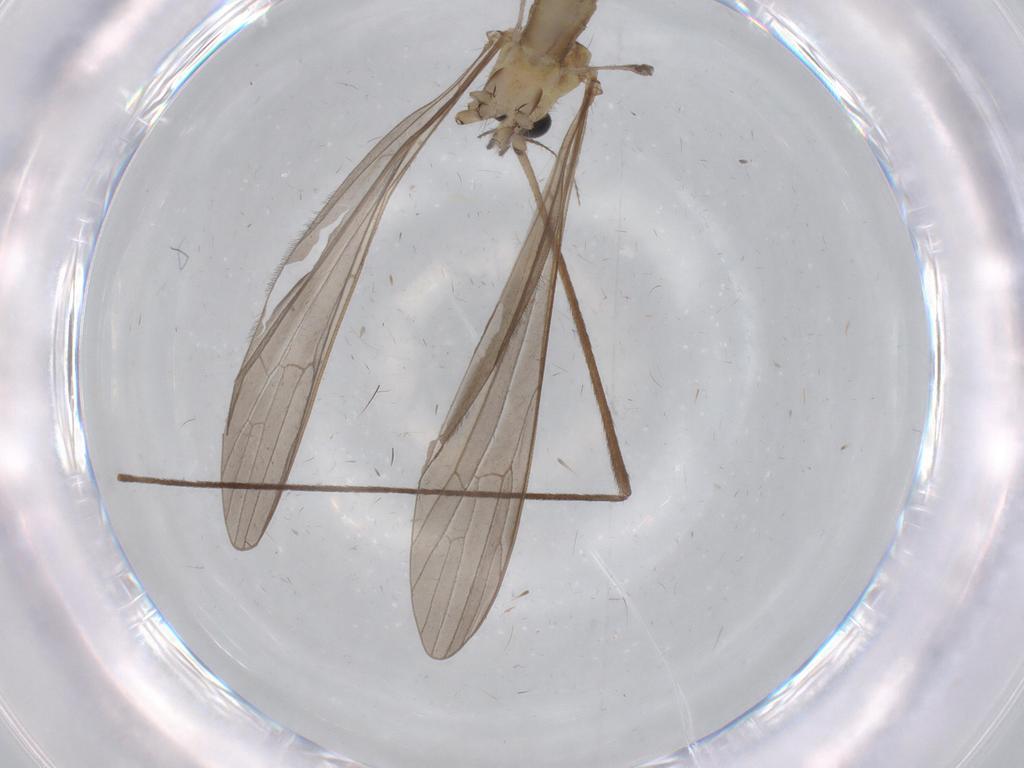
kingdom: Animalia
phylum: Arthropoda
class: Insecta
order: Diptera
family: Limoniidae
